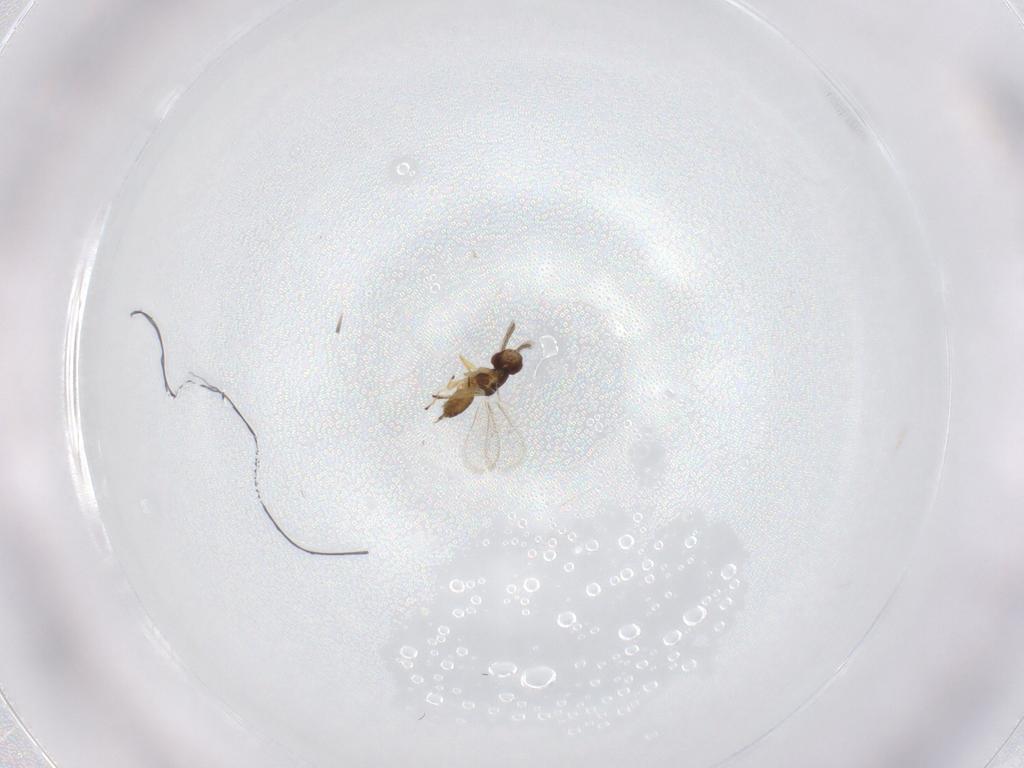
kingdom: Animalia
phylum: Arthropoda
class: Insecta
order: Hymenoptera
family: Eulophidae
